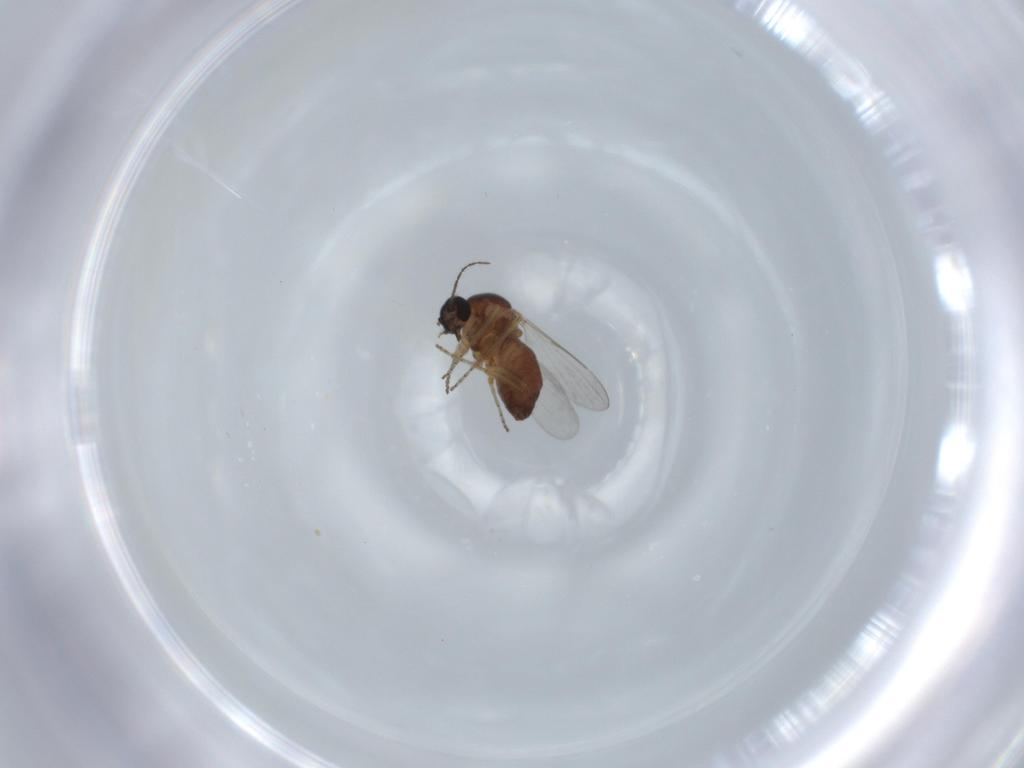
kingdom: Animalia
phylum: Arthropoda
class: Insecta
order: Diptera
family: Ceratopogonidae
